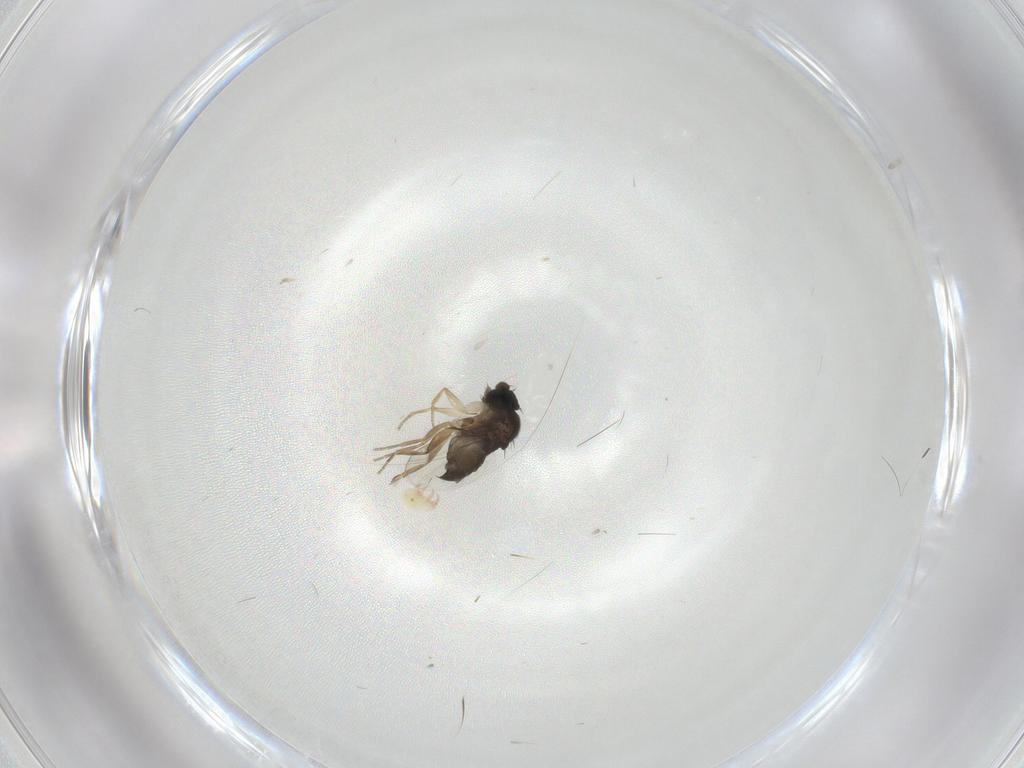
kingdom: Animalia
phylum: Arthropoda
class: Insecta
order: Diptera
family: Phoridae
